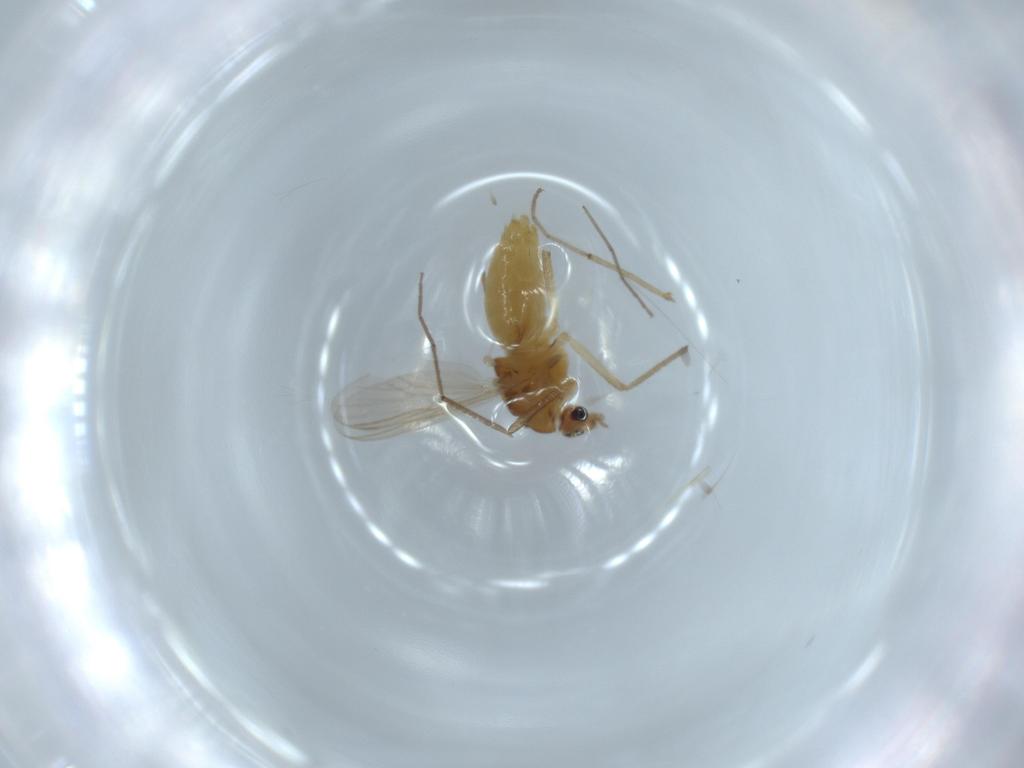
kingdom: Animalia
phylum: Arthropoda
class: Insecta
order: Diptera
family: Chironomidae
